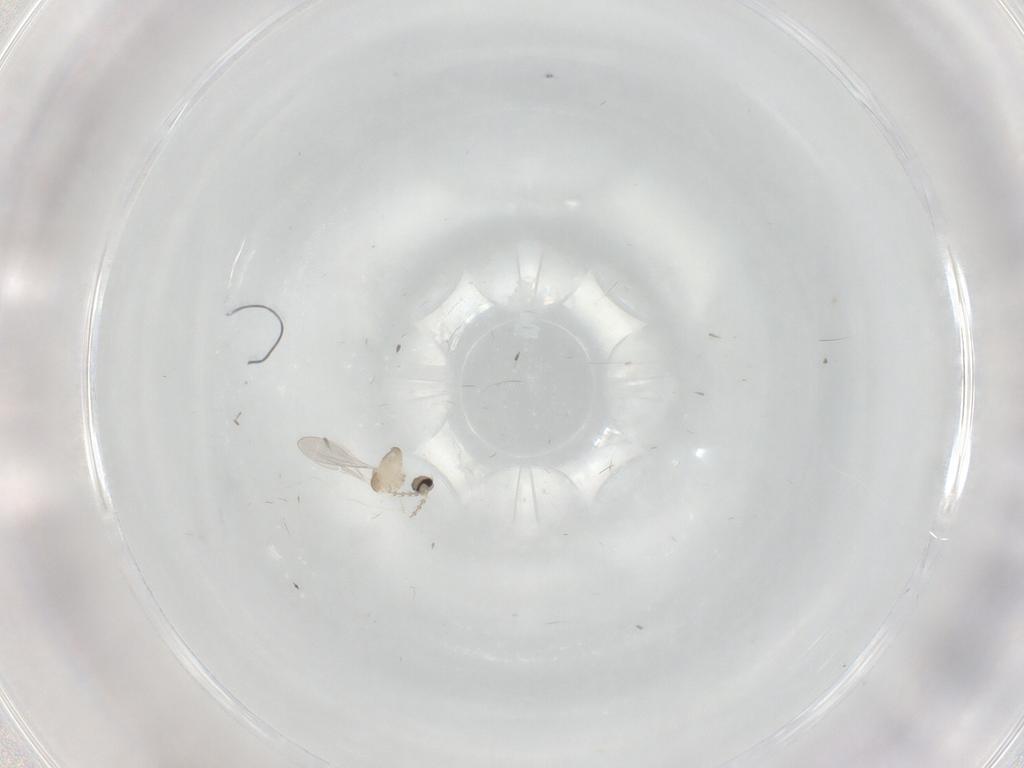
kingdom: Animalia
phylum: Arthropoda
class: Insecta
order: Diptera
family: Cecidomyiidae
